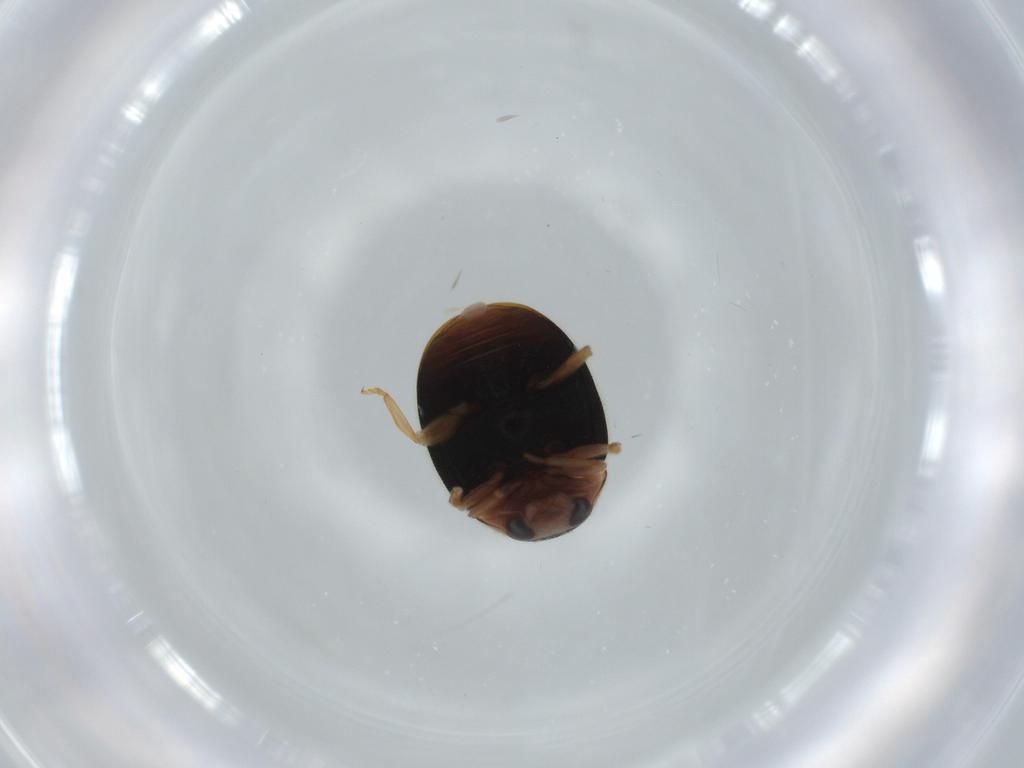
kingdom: Animalia
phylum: Arthropoda
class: Insecta
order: Coleoptera
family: Coccinellidae
